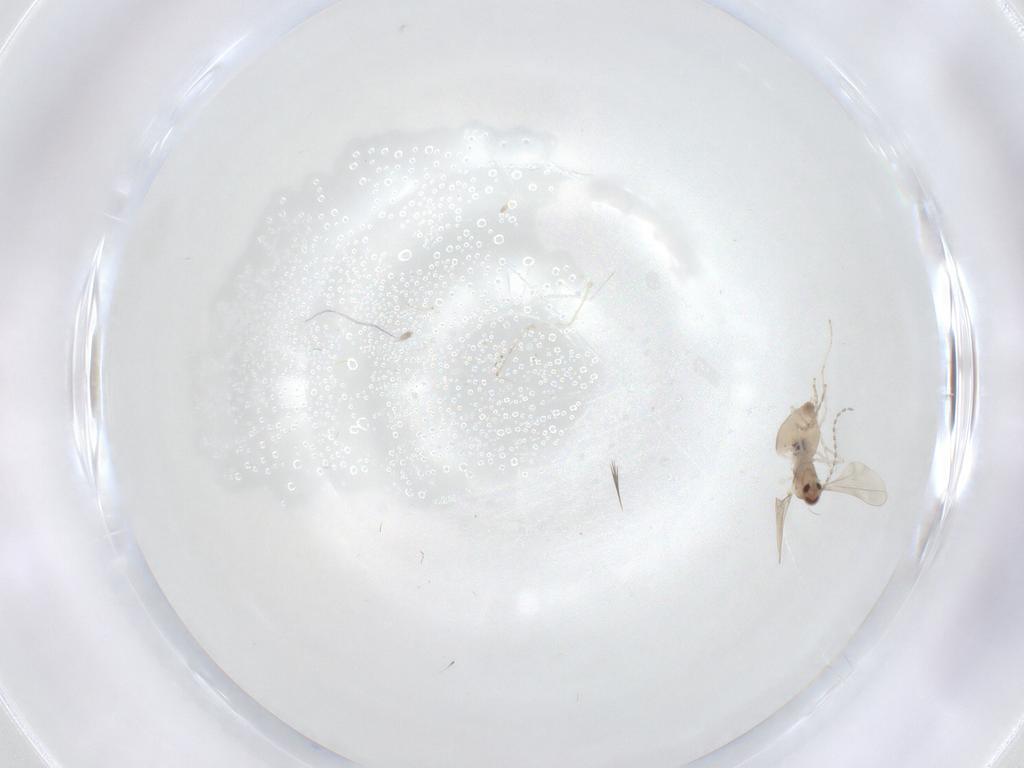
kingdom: Animalia
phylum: Arthropoda
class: Insecta
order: Diptera
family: Cecidomyiidae
